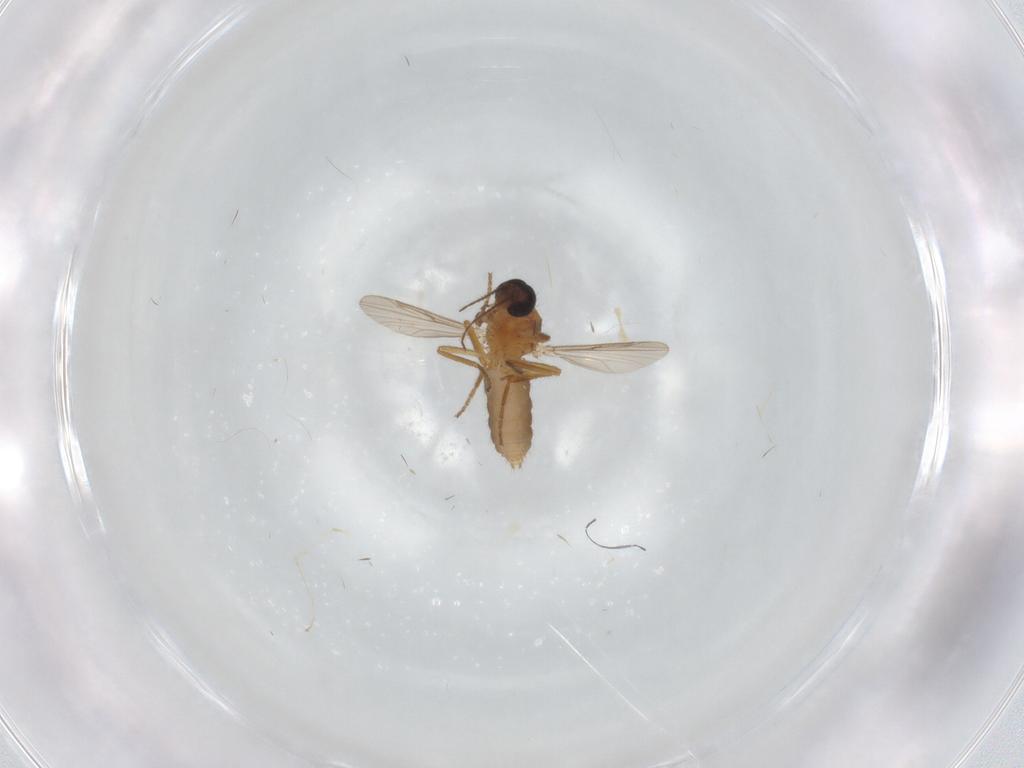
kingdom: Animalia
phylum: Arthropoda
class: Insecta
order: Diptera
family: Ceratopogonidae
